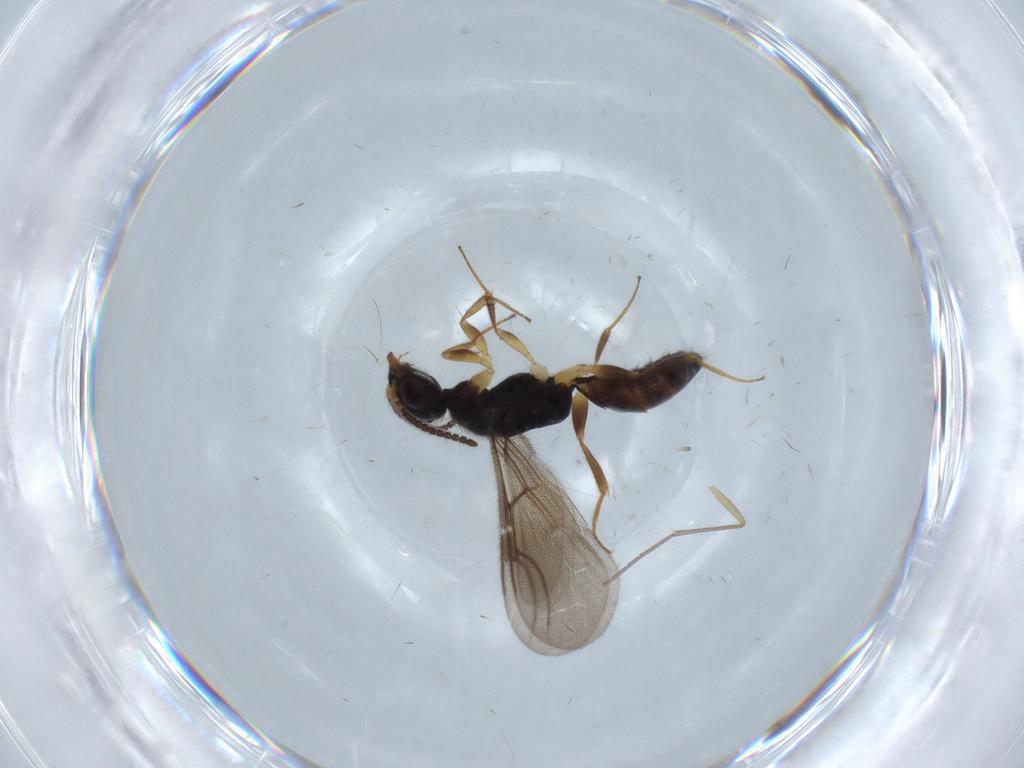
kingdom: Animalia
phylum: Arthropoda
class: Insecta
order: Hymenoptera
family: Bethylidae
